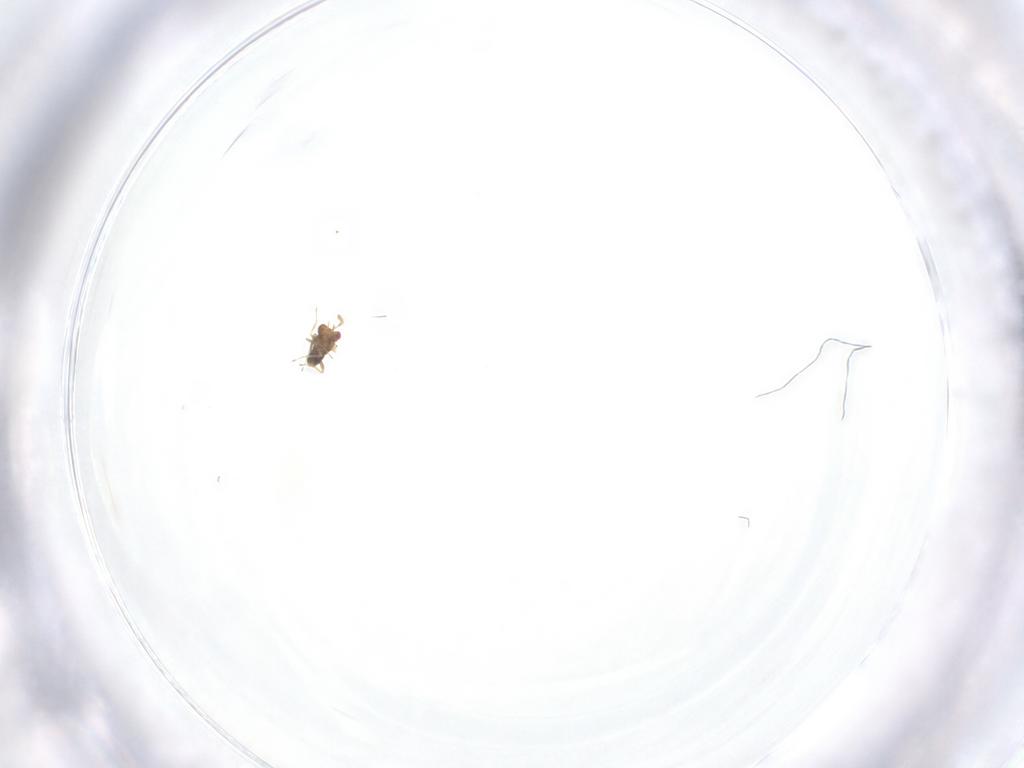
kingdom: Animalia
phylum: Arthropoda
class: Insecta
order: Hymenoptera
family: Trichogrammatidae
